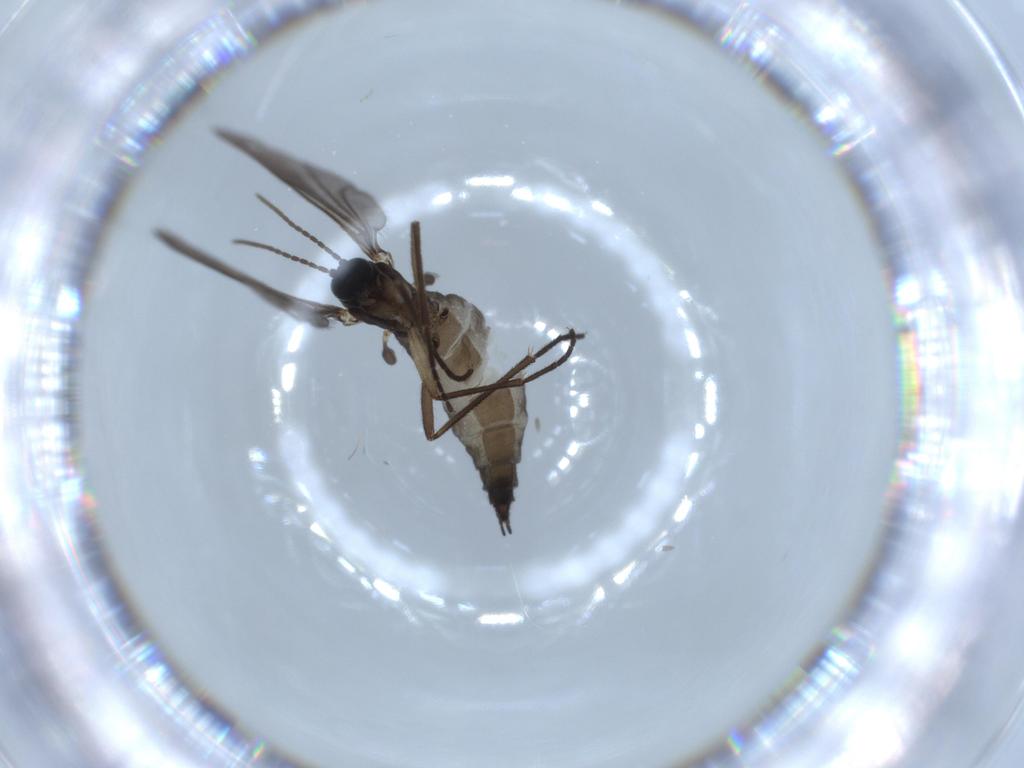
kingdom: Animalia
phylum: Arthropoda
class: Insecta
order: Diptera
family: Sciaridae
